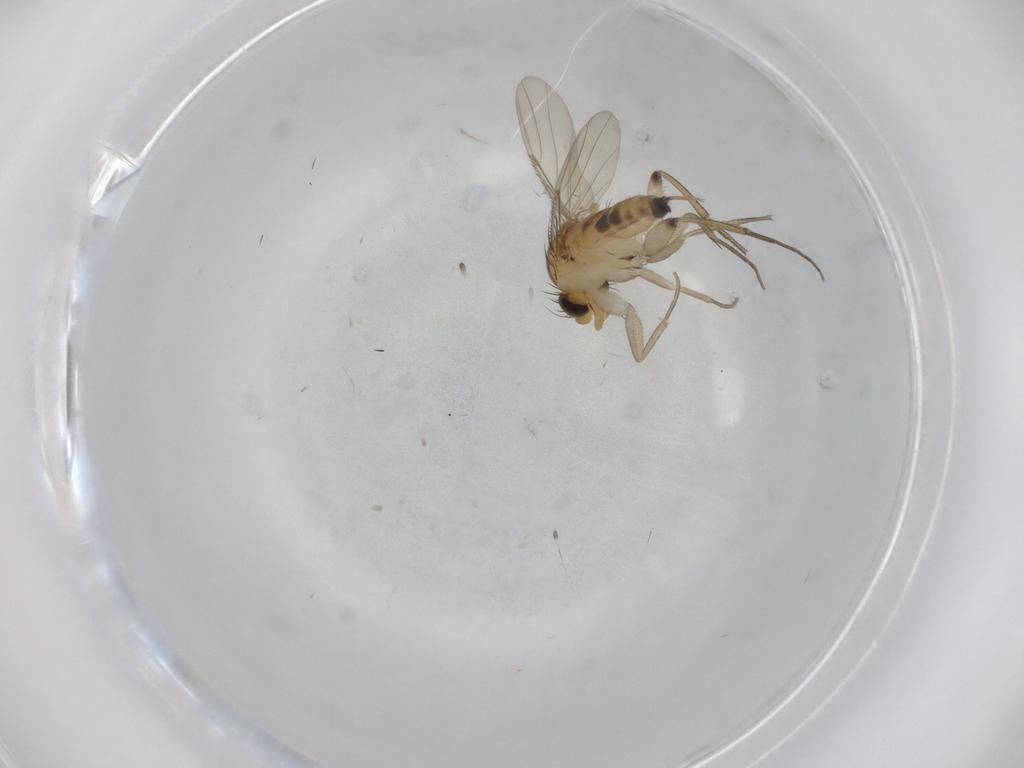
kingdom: Animalia
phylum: Arthropoda
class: Insecta
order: Diptera
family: Phoridae
